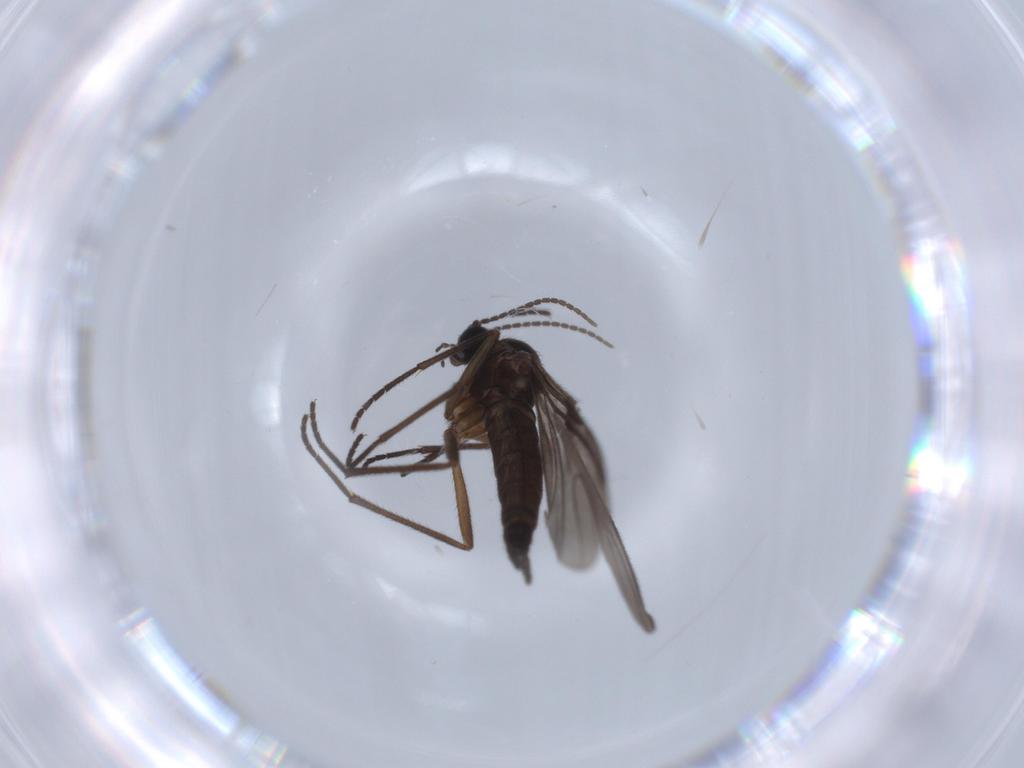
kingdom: Animalia
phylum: Arthropoda
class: Insecta
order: Diptera
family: Sciaridae
